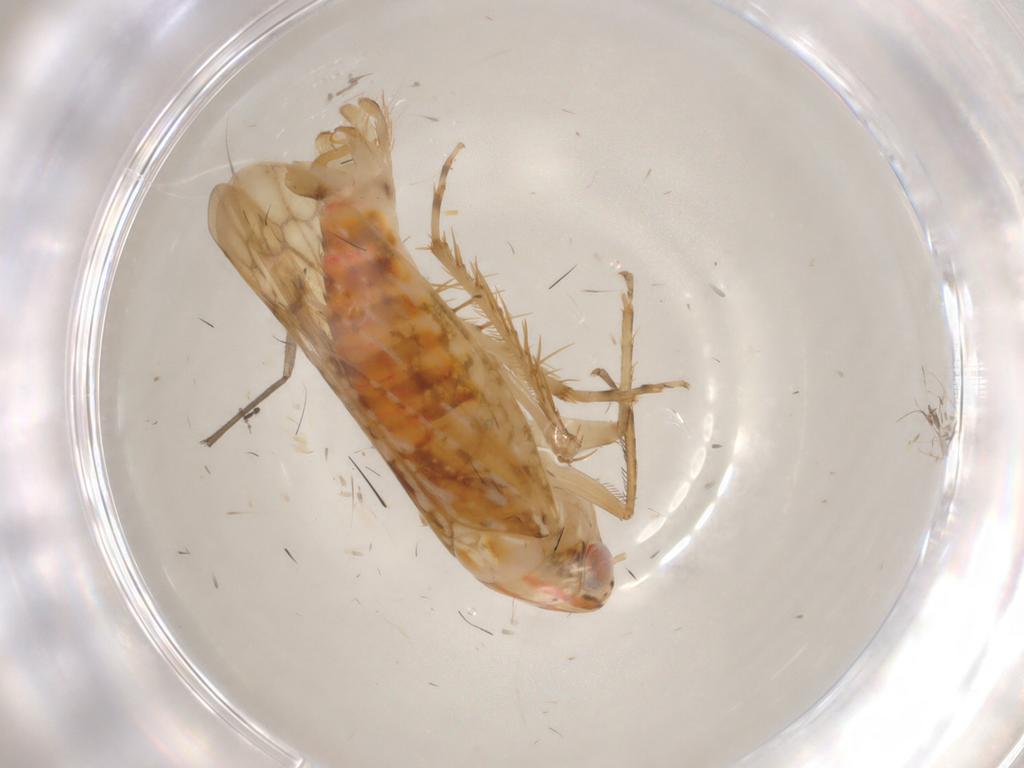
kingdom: Animalia
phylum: Arthropoda
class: Insecta
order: Hemiptera
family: Cicadellidae
